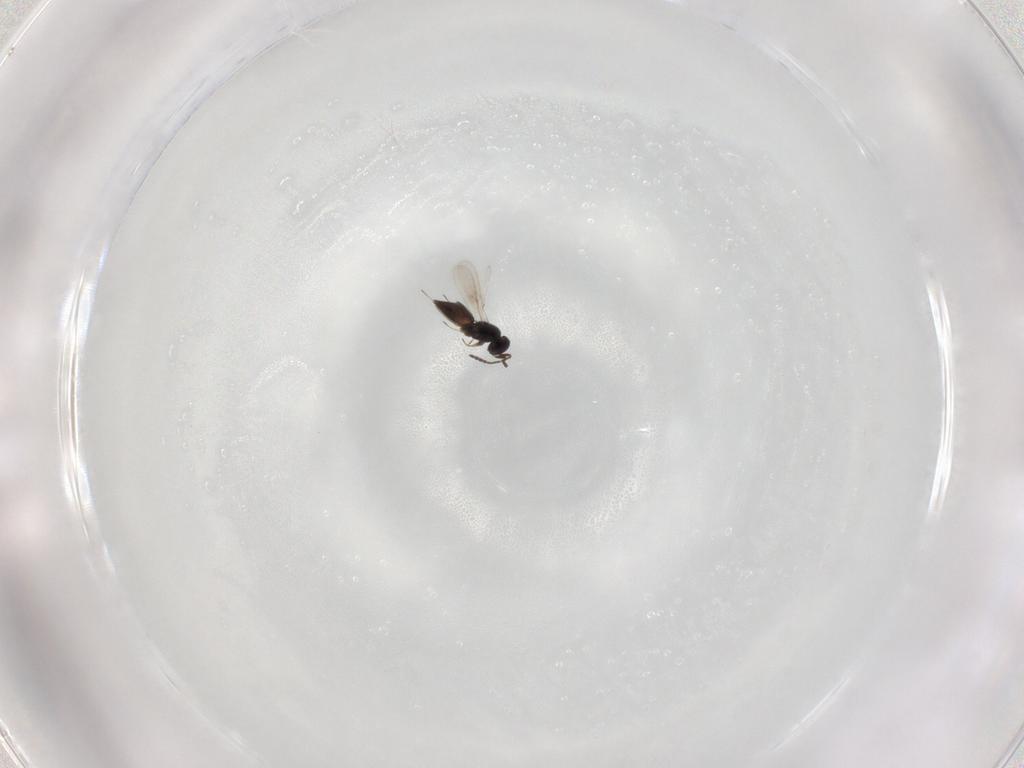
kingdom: Animalia
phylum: Arthropoda
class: Insecta
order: Hymenoptera
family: Scelionidae
